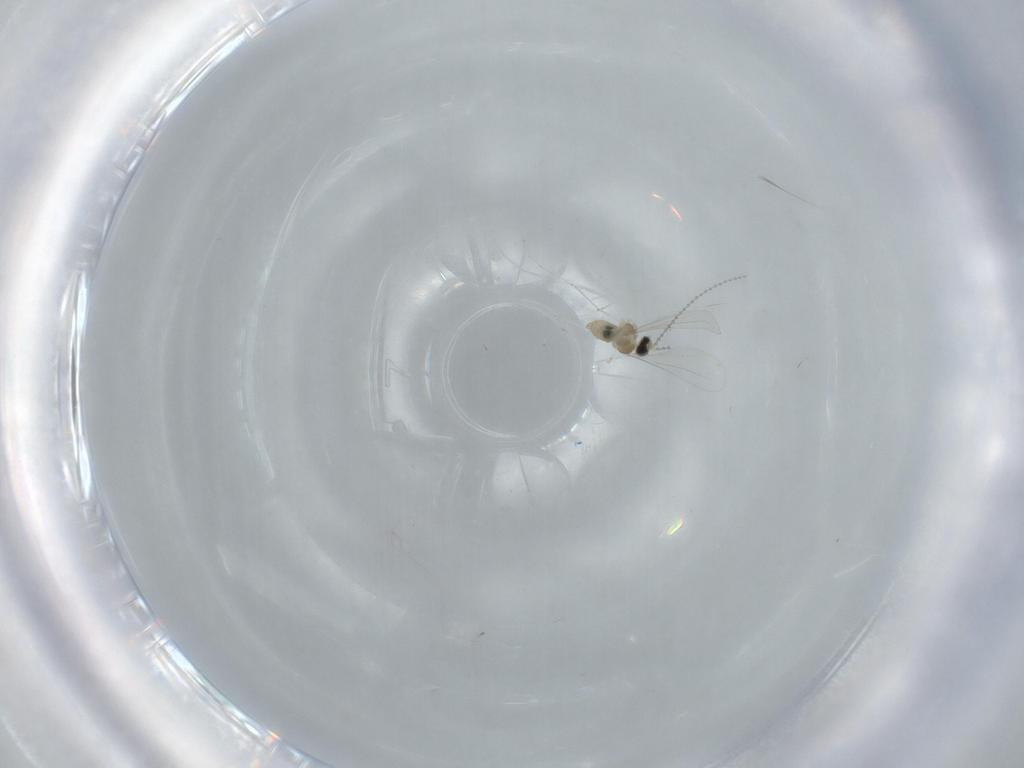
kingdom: Animalia
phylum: Arthropoda
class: Insecta
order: Diptera
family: Cecidomyiidae
